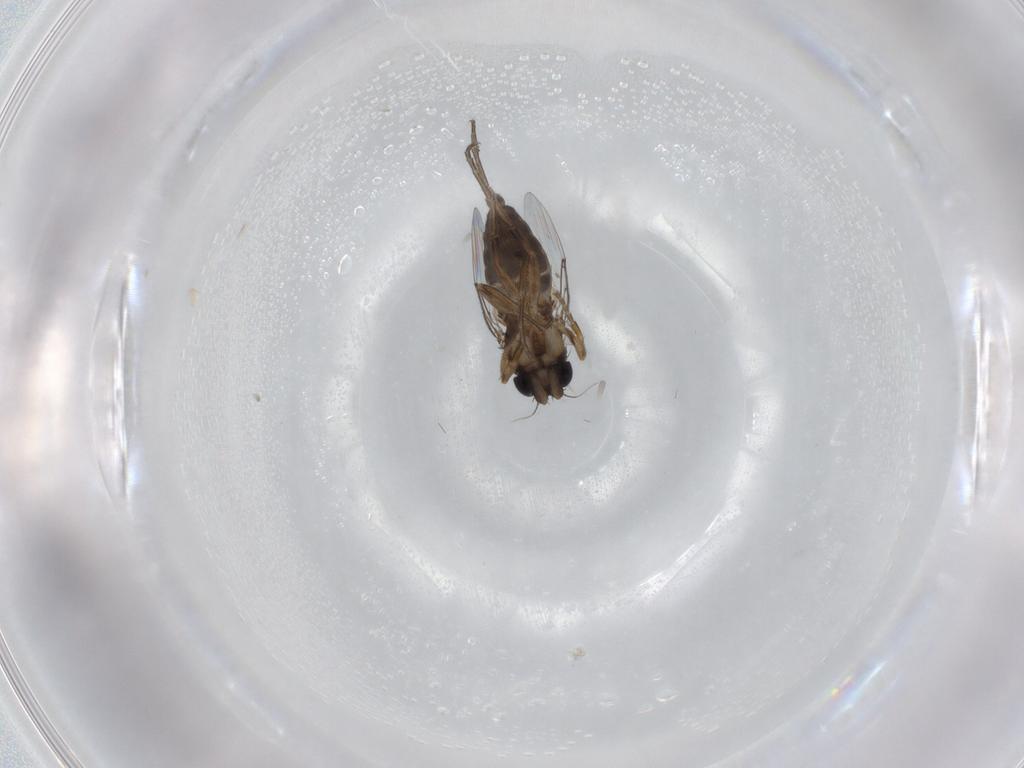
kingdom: Animalia
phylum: Arthropoda
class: Insecta
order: Diptera
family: Phoridae
